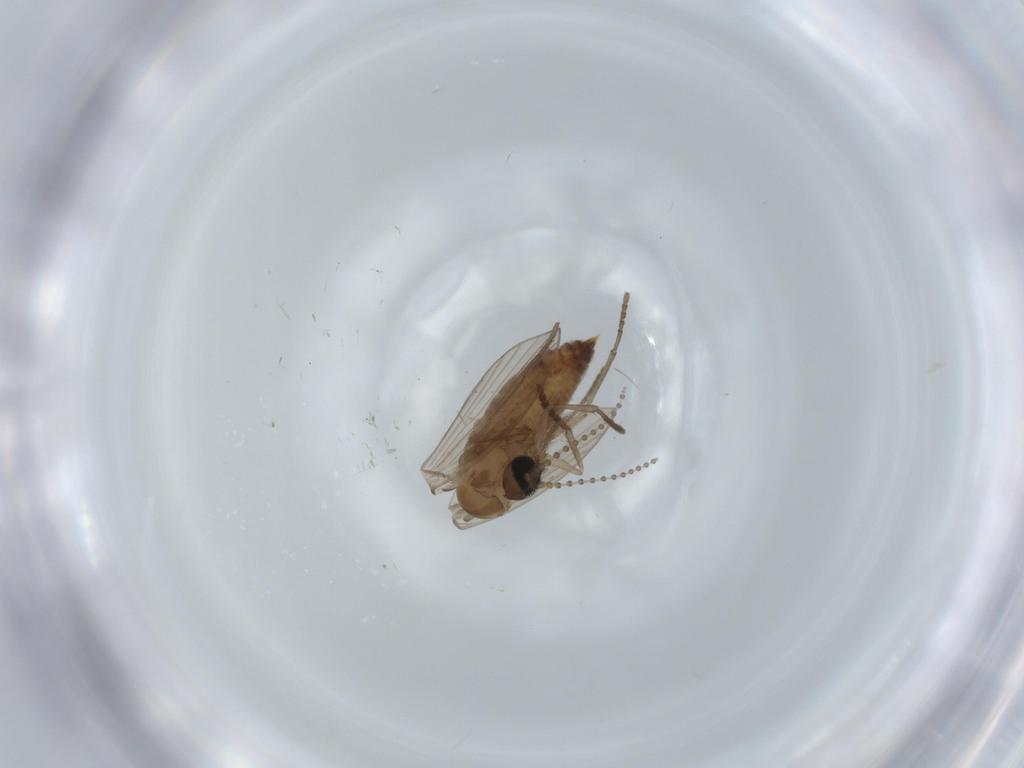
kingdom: Animalia
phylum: Arthropoda
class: Insecta
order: Diptera
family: Psychodidae
